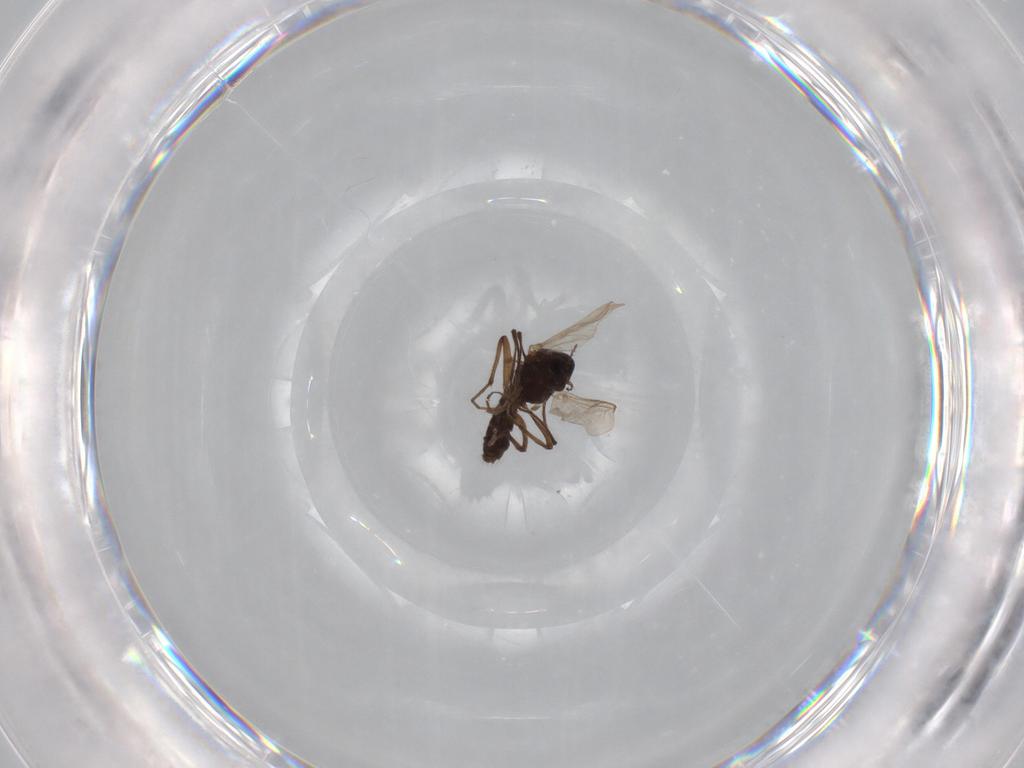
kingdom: Animalia
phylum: Arthropoda
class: Insecta
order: Diptera
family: Chironomidae
